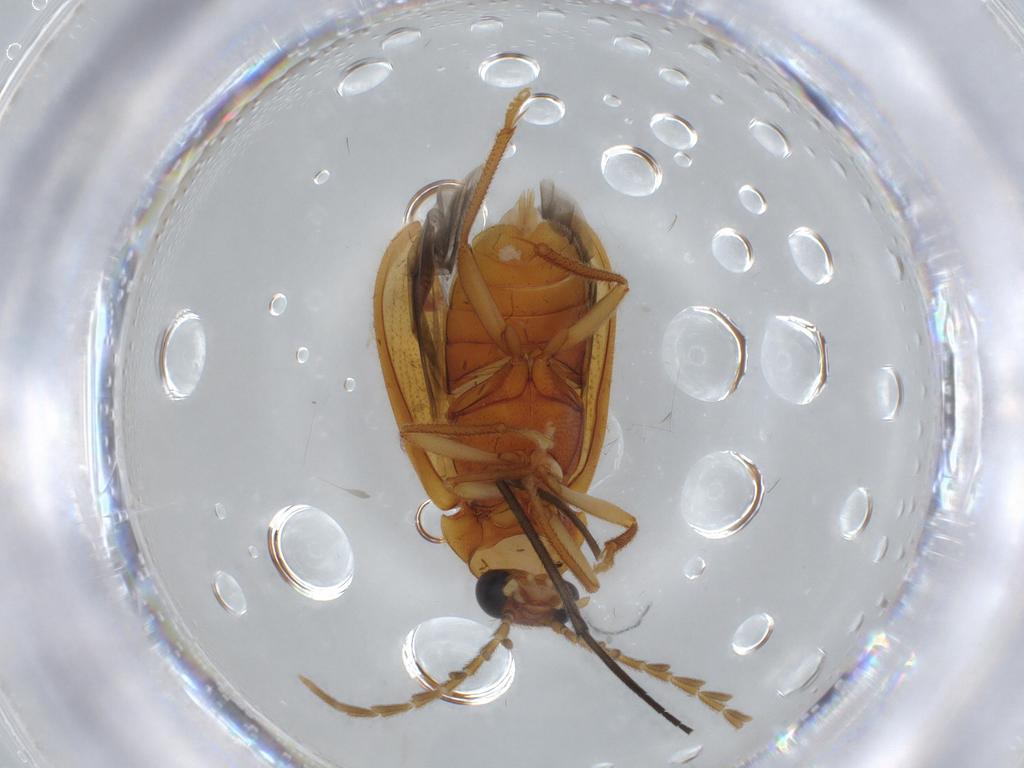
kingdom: Animalia
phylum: Arthropoda
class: Insecta
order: Coleoptera
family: Ptilodactylidae
